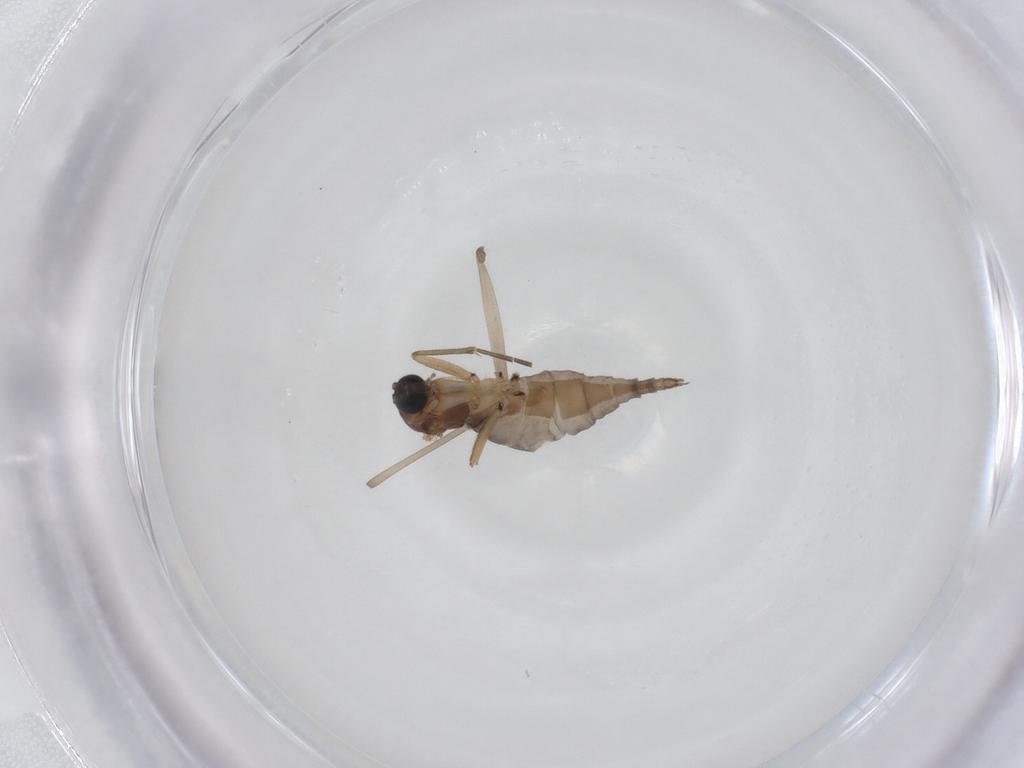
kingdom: Animalia
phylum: Arthropoda
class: Insecta
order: Diptera
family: Sciaridae
